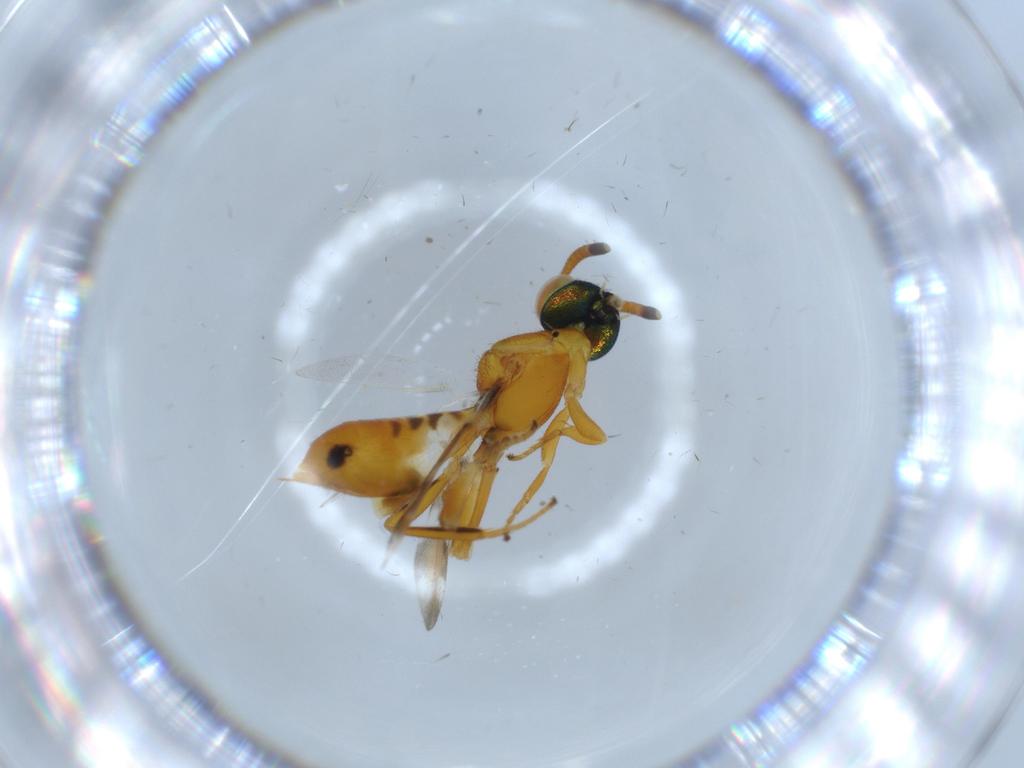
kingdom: Animalia
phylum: Arthropoda
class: Insecta
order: Hymenoptera
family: Eupelmidae
